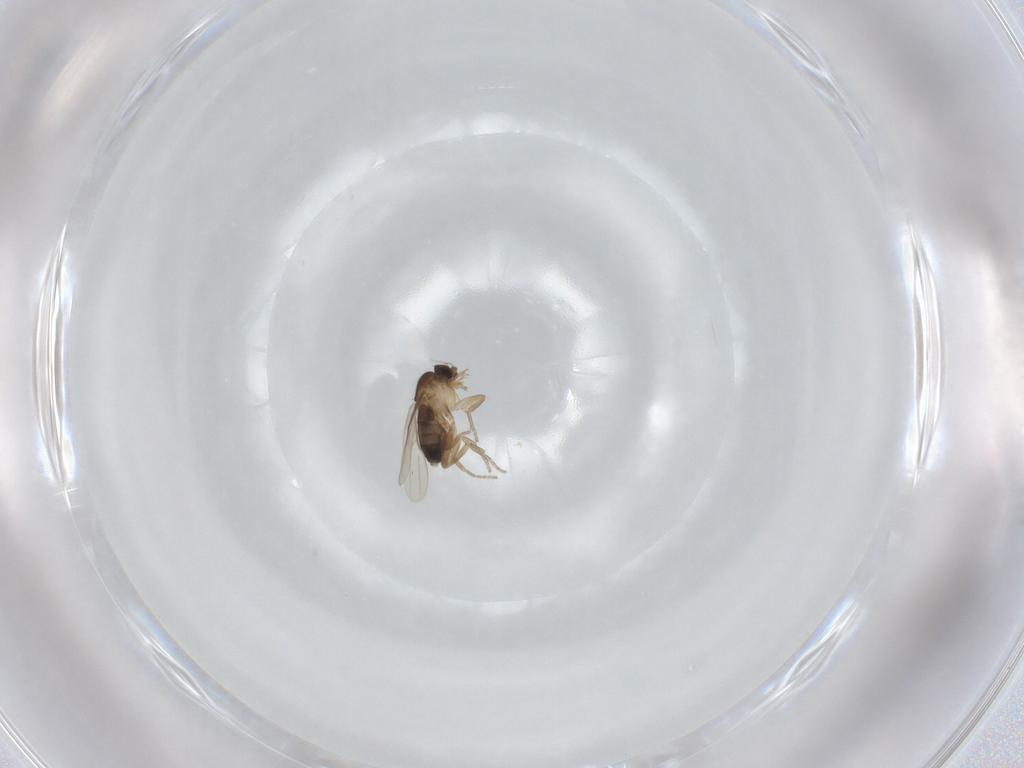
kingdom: Animalia
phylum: Arthropoda
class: Insecta
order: Diptera
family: Phoridae
